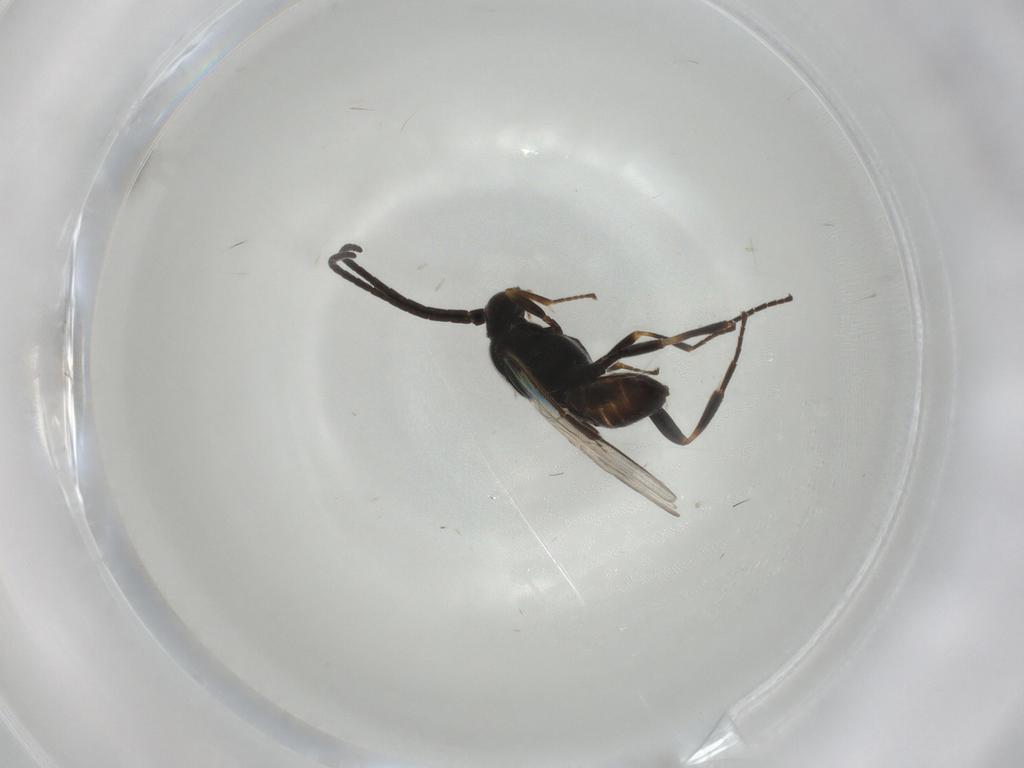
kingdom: Animalia
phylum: Arthropoda
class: Insecta
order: Hymenoptera
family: Braconidae
